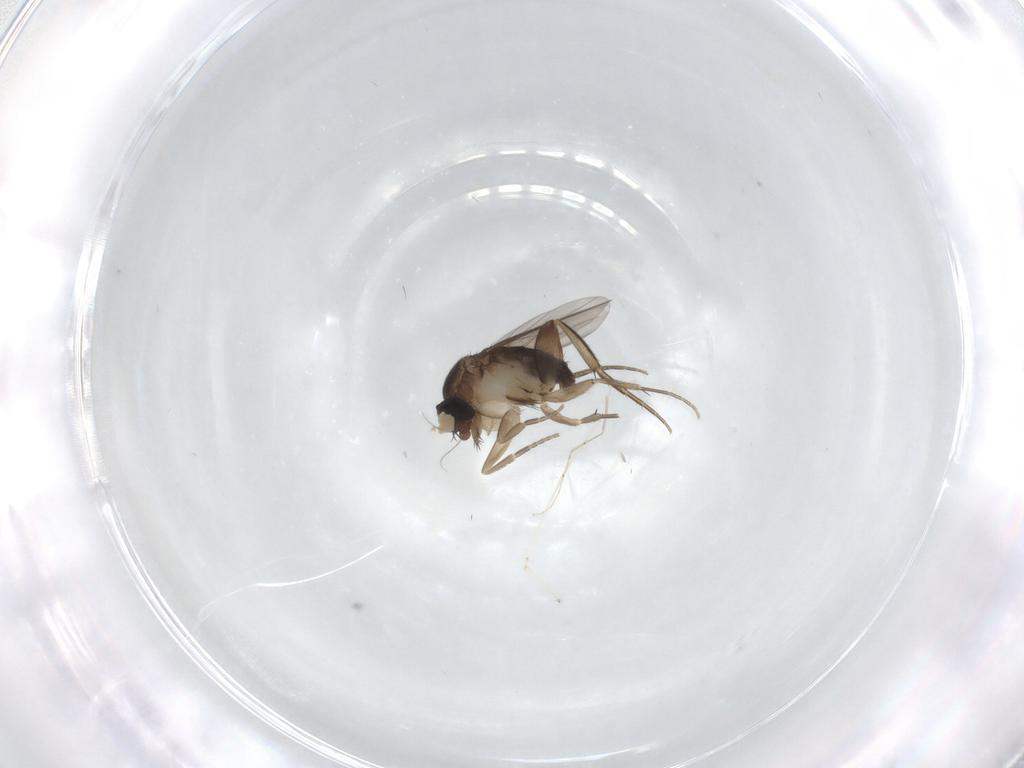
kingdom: Animalia
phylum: Arthropoda
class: Insecta
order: Diptera
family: Phoridae
